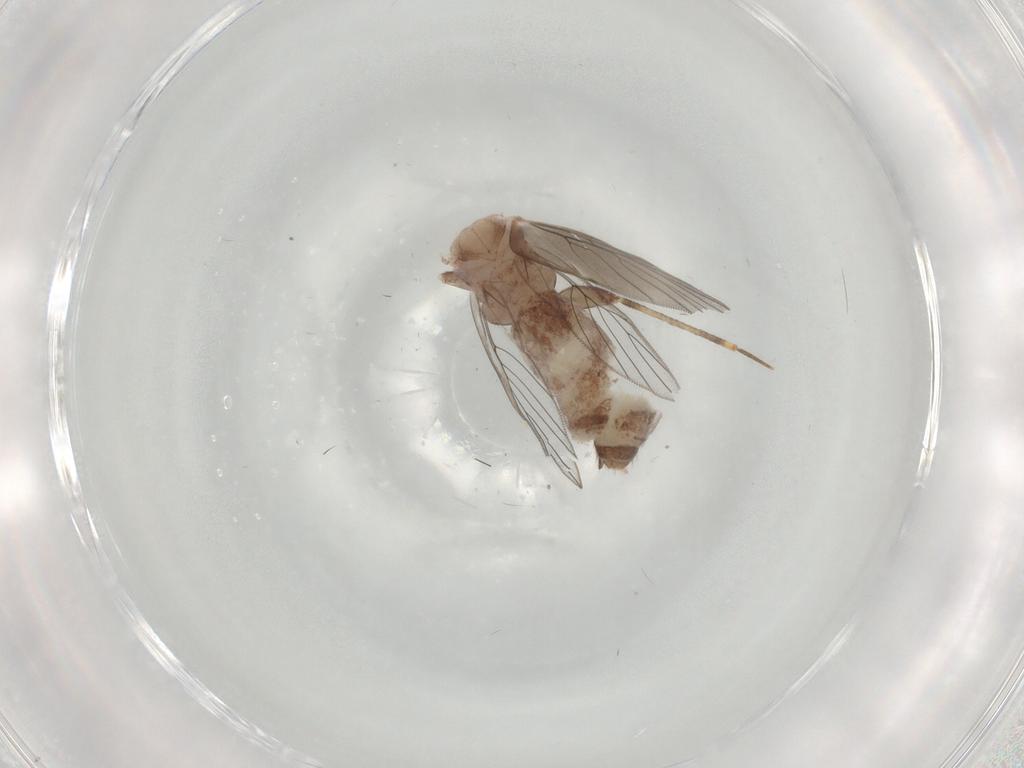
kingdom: Animalia
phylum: Arthropoda
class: Insecta
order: Psocodea
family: Lepidopsocidae
